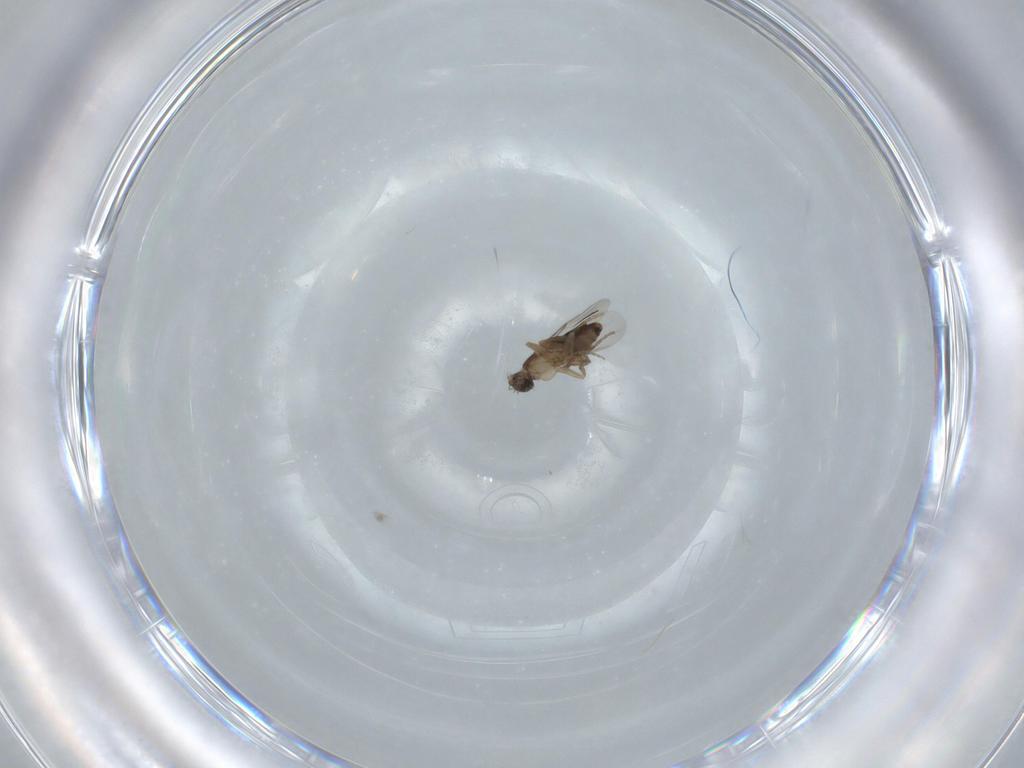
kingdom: Animalia
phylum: Arthropoda
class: Insecta
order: Diptera
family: Phoridae
